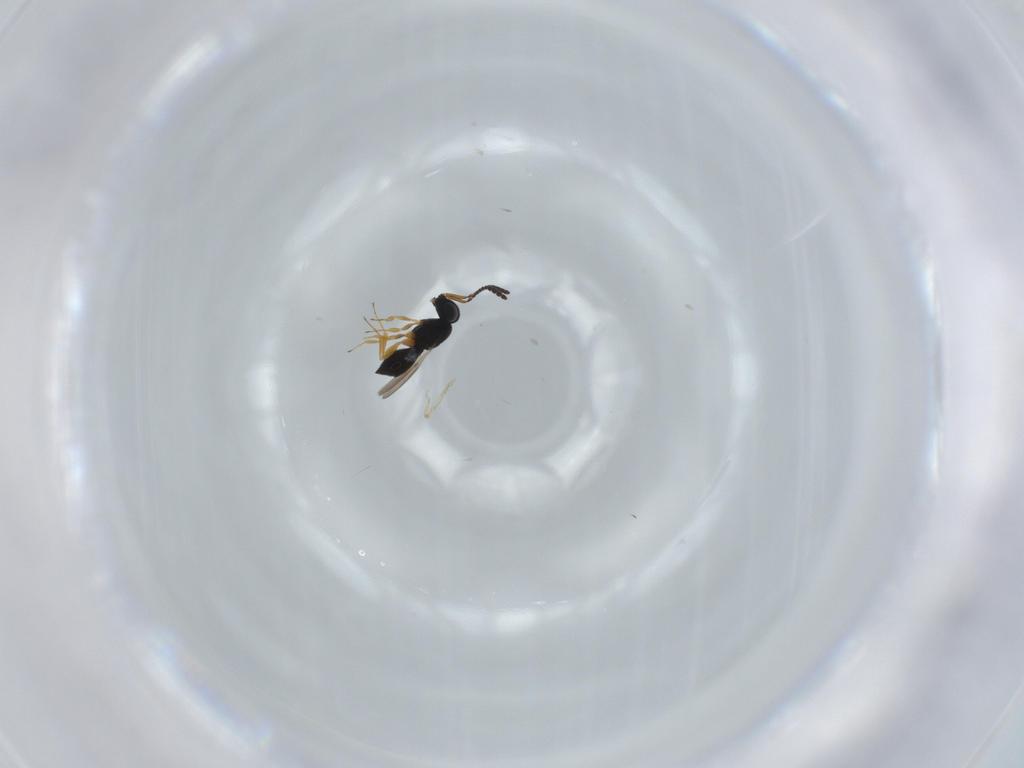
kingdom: Animalia
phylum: Arthropoda
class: Insecta
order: Hymenoptera
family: Scelionidae
